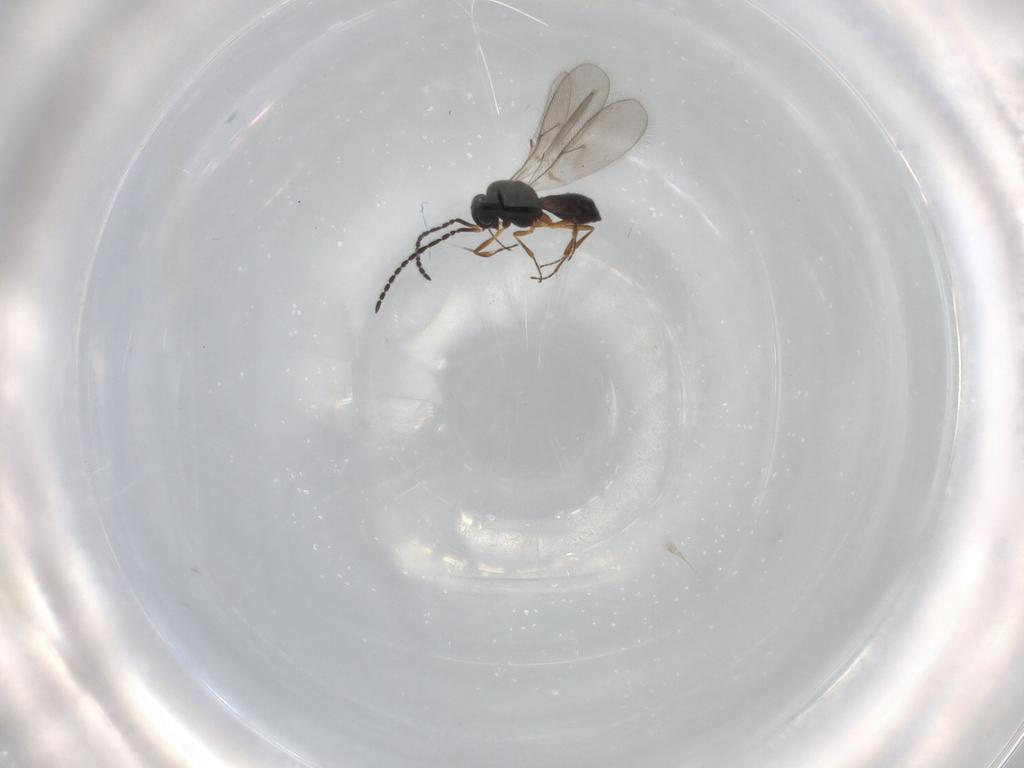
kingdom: Animalia
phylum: Arthropoda
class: Insecta
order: Hymenoptera
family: Scelionidae
